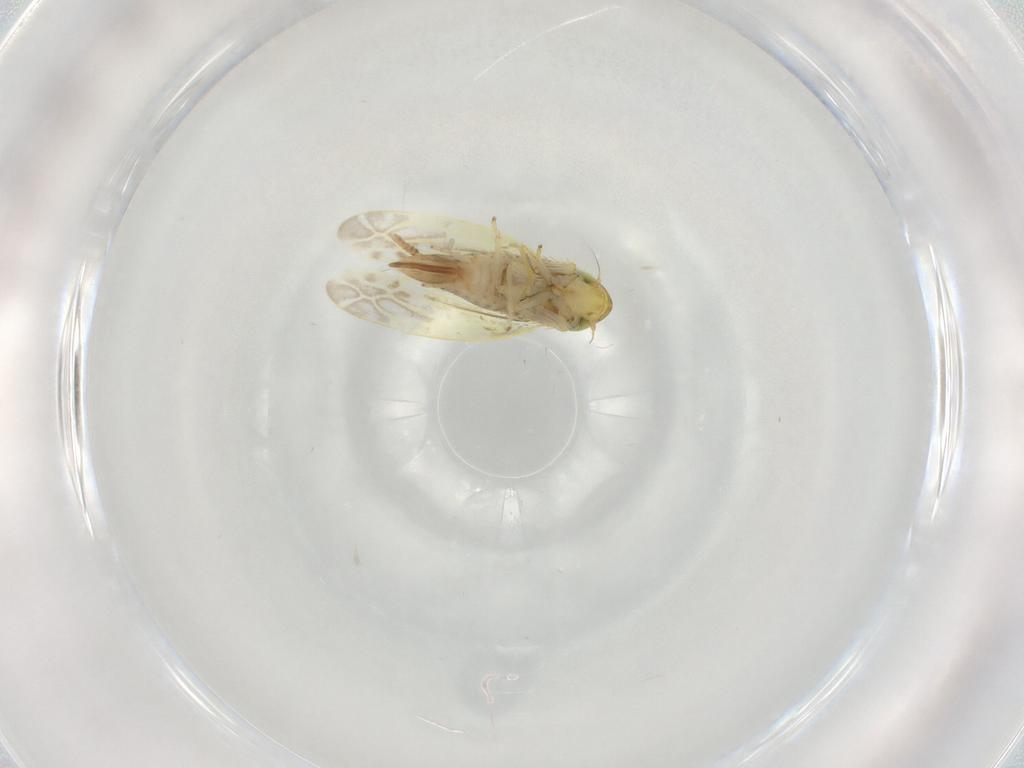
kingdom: Animalia
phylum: Arthropoda
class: Insecta
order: Hemiptera
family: Cicadellidae
